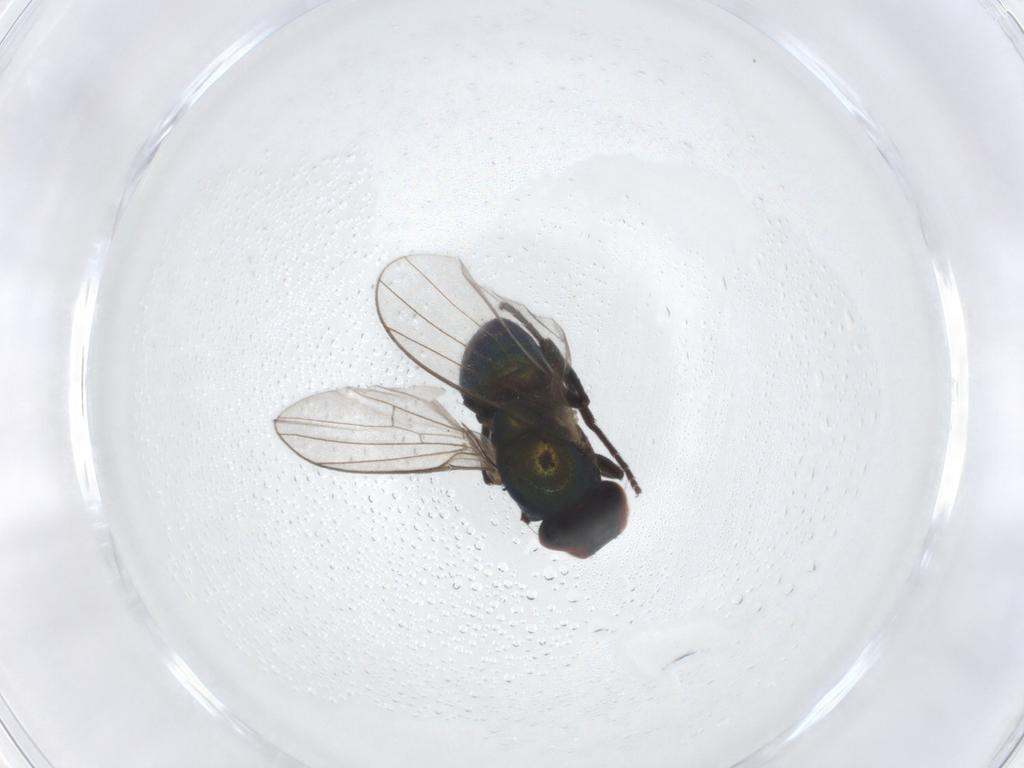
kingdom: Animalia
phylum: Arthropoda
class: Insecta
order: Diptera
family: Agromyzidae
